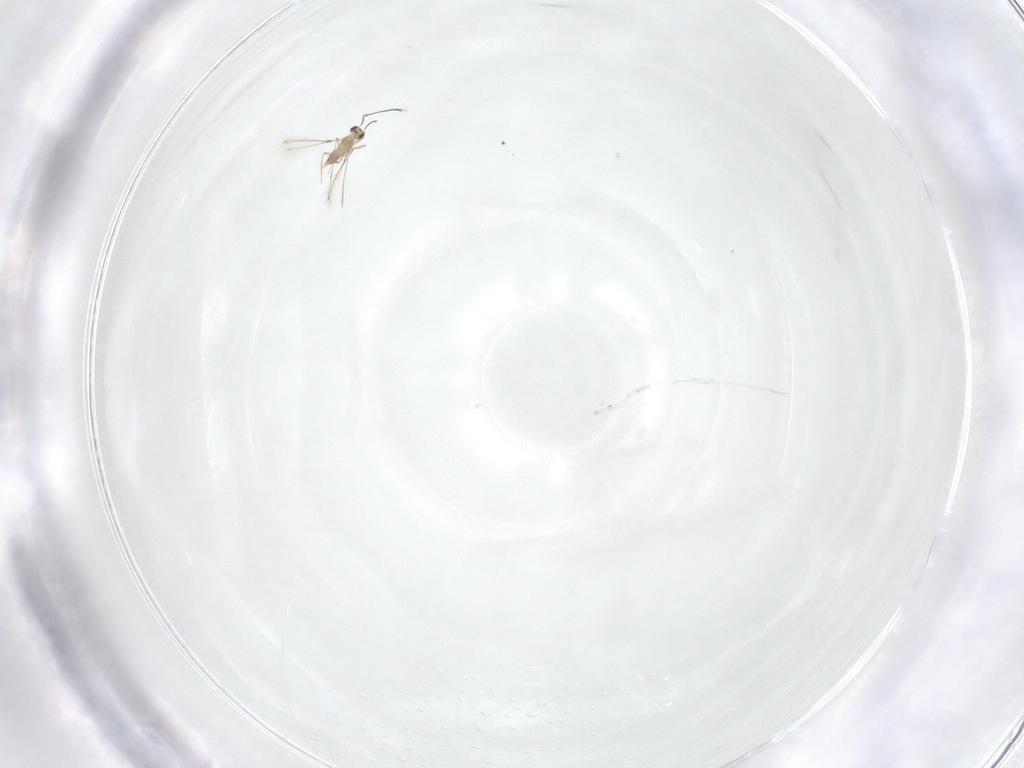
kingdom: Animalia
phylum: Arthropoda
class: Insecta
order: Hymenoptera
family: Mymaridae
